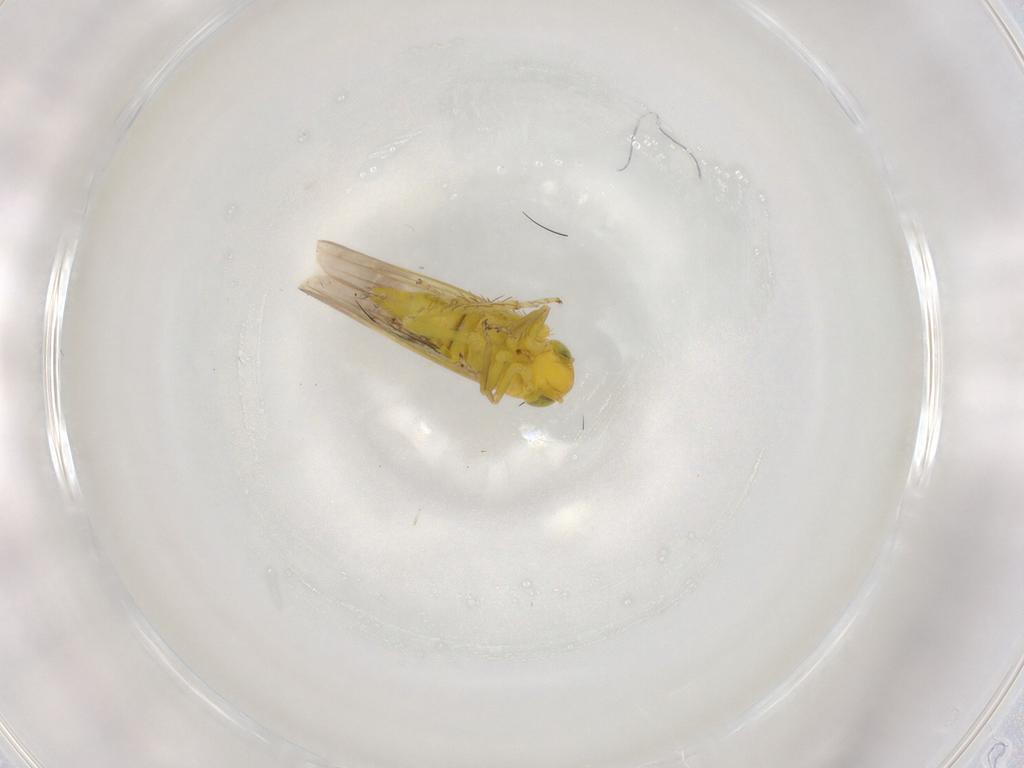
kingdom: Animalia
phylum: Arthropoda
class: Insecta
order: Hemiptera
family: Cicadellidae
